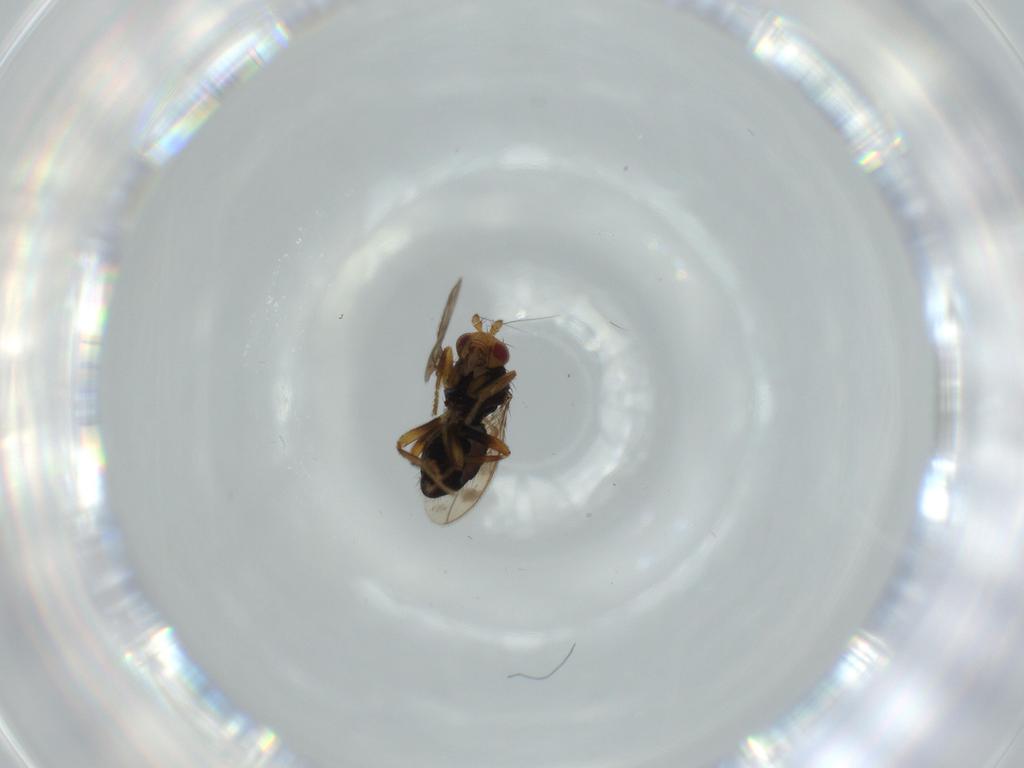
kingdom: Animalia
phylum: Arthropoda
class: Insecta
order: Diptera
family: Sphaeroceridae
